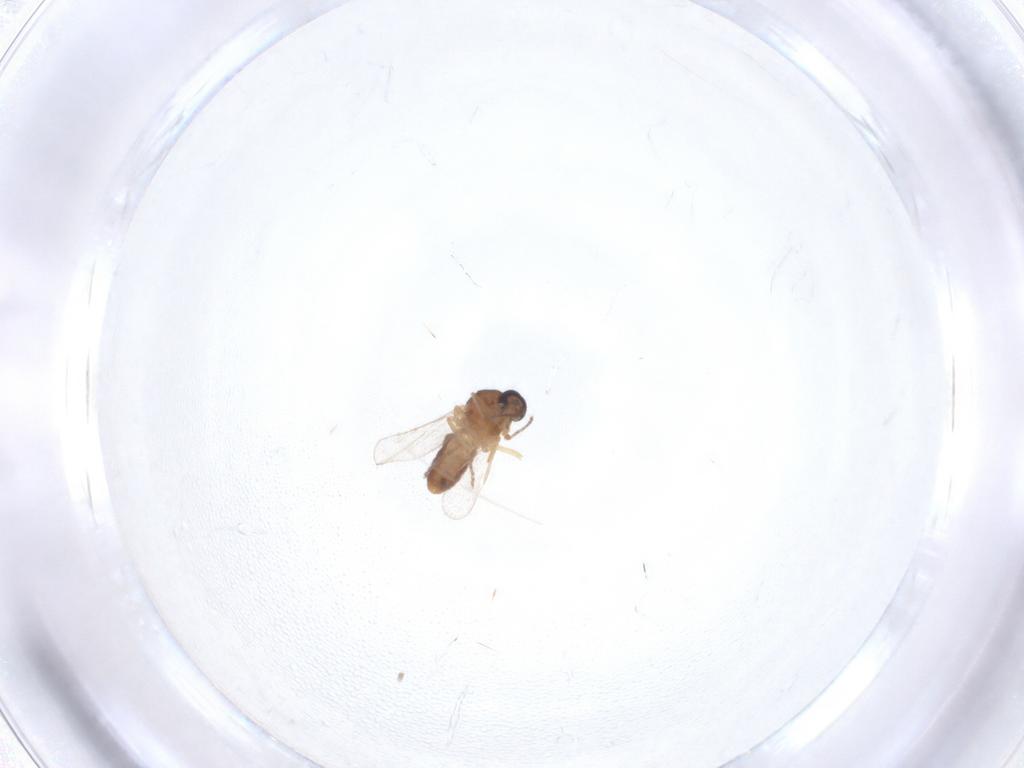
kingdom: Animalia
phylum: Arthropoda
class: Insecta
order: Diptera
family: Ceratopogonidae
